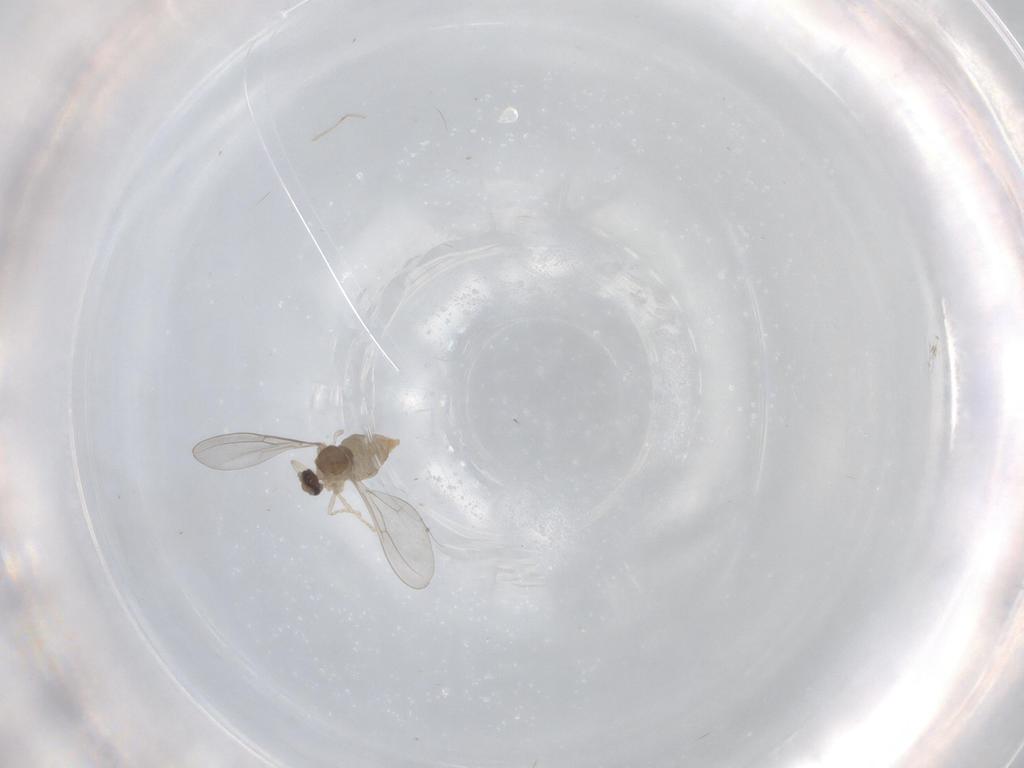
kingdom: Animalia
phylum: Arthropoda
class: Insecta
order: Diptera
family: Cecidomyiidae
